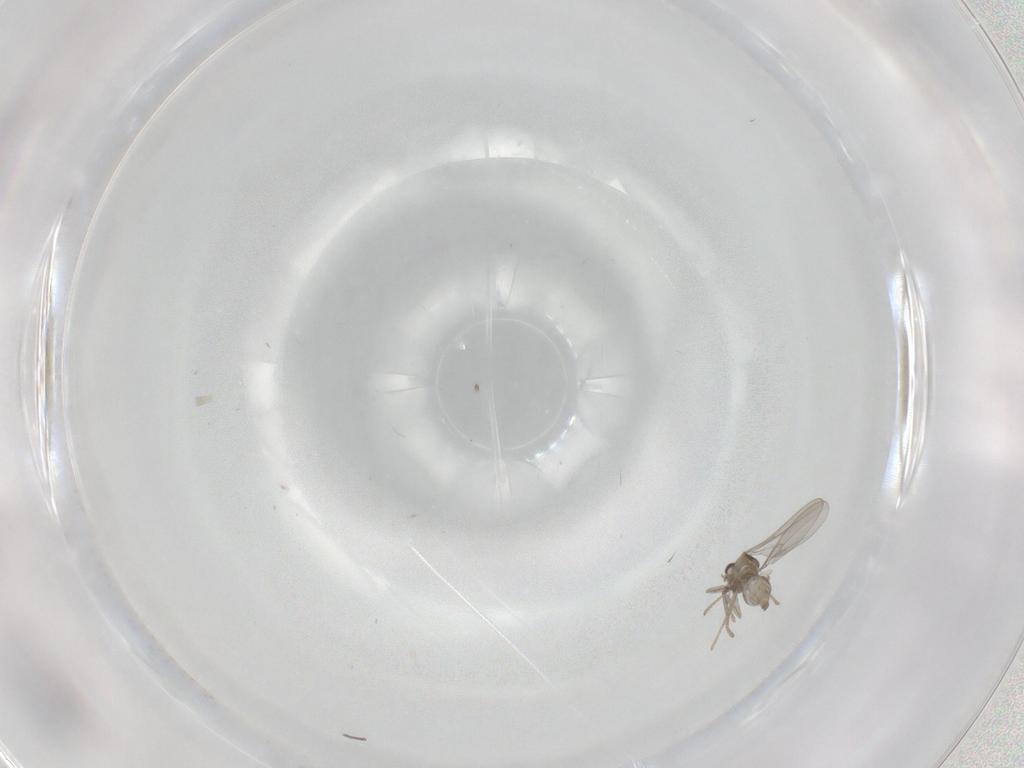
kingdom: Animalia
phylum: Arthropoda
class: Insecta
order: Diptera
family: Cecidomyiidae
